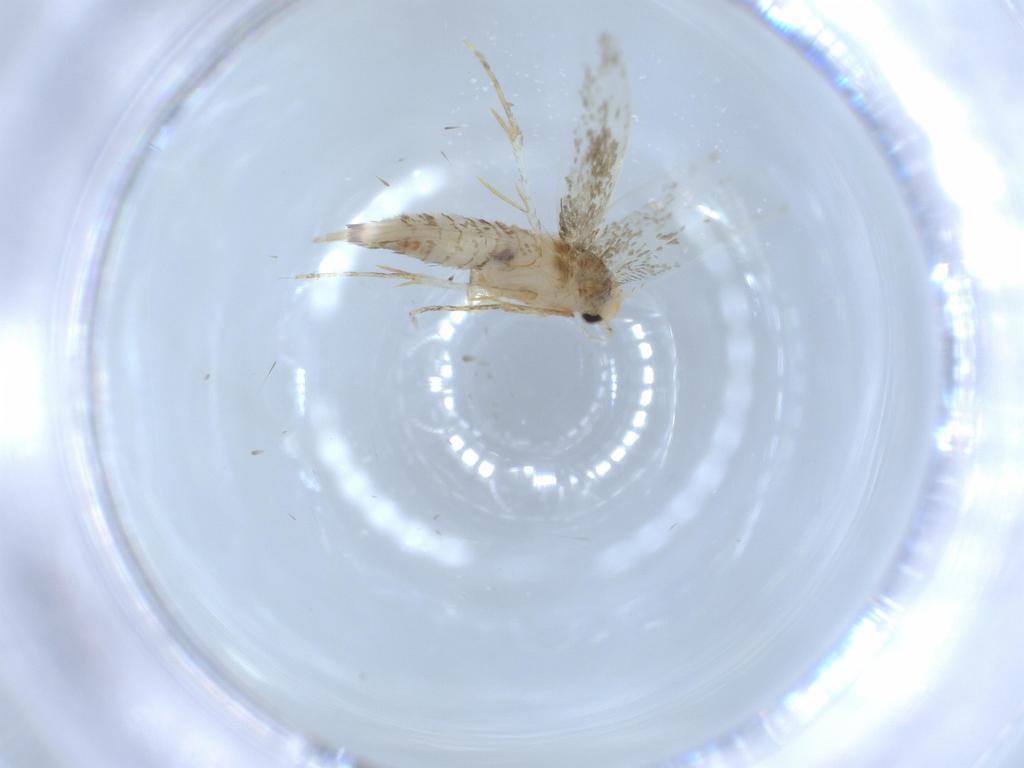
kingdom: Animalia
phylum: Arthropoda
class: Insecta
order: Lepidoptera
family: Tineidae
